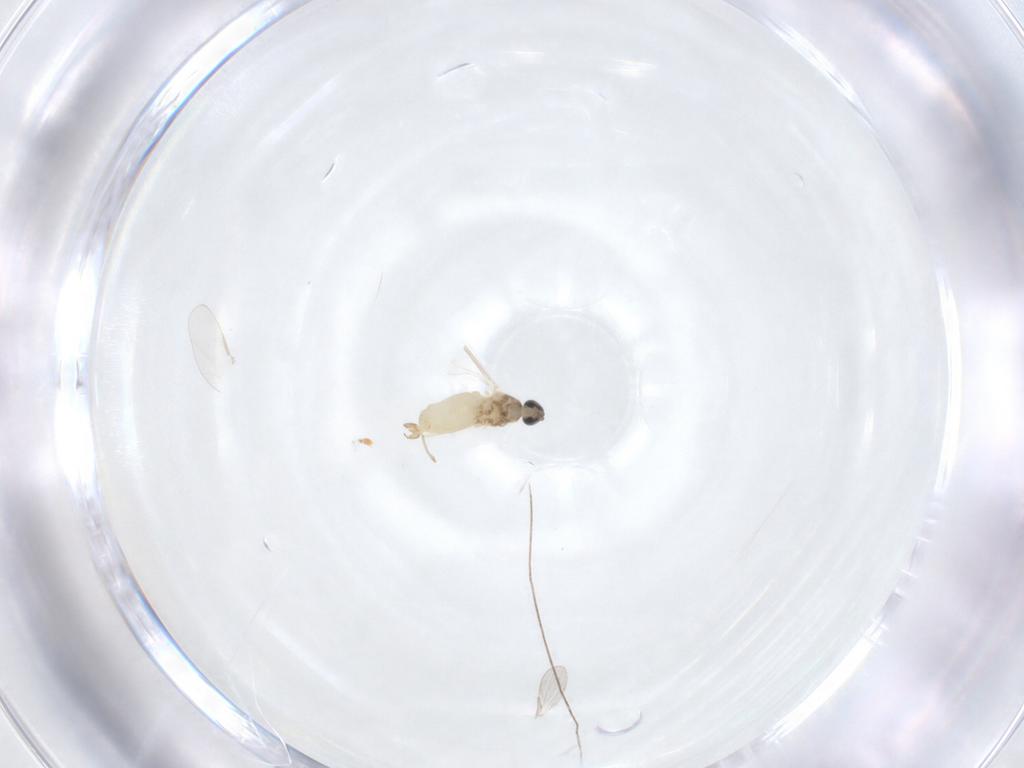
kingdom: Animalia
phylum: Arthropoda
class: Insecta
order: Diptera
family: Cecidomyiidae
